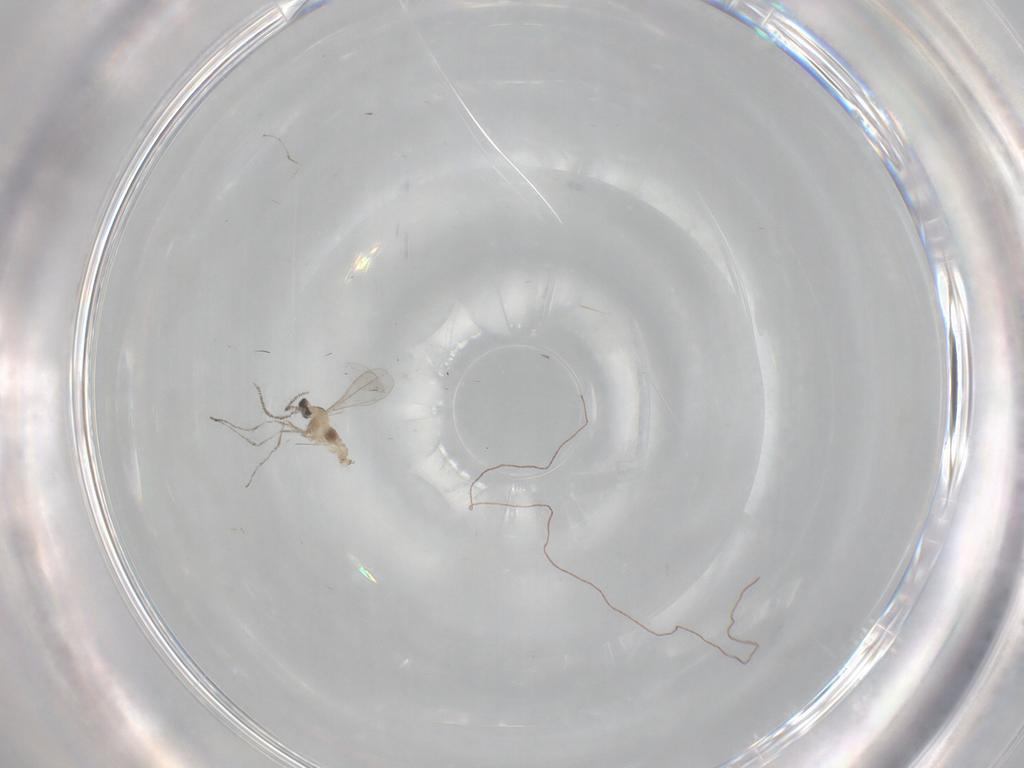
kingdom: Animalia
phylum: Arthropoda
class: Insecta
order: Diptera
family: Cecidomyiidae
